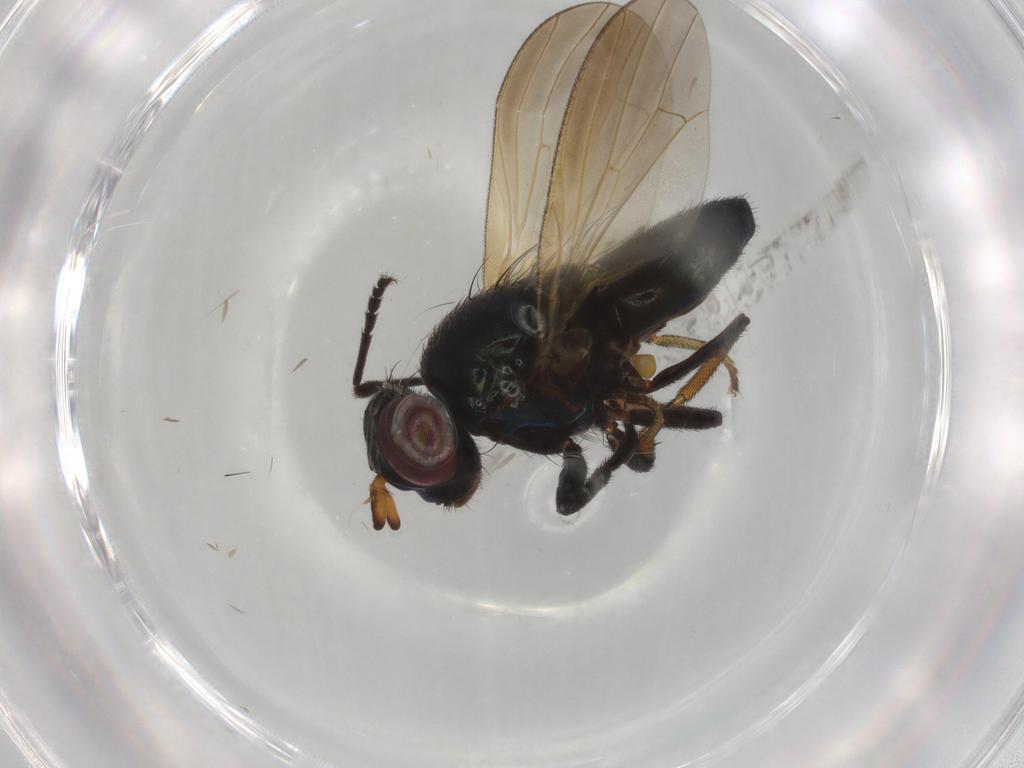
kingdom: Animalia
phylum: Arthropoda
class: Insecta
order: Diptera
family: Lauxaniidae
